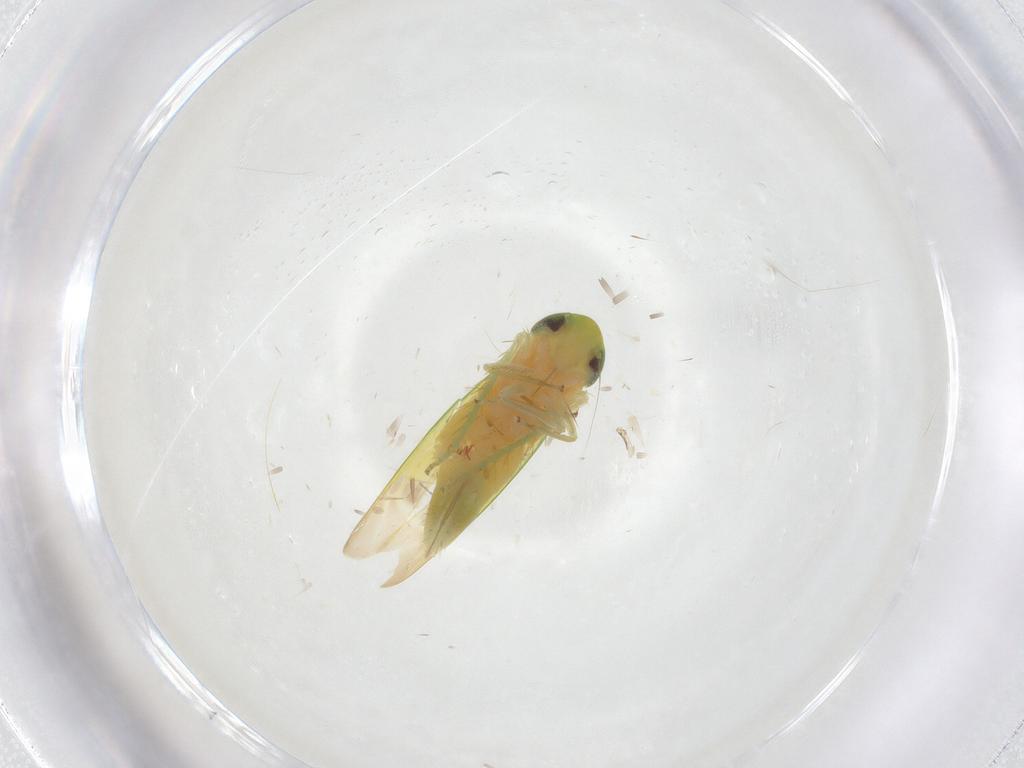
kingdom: Animalia
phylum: Arthropoda
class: Insecta
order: Hemiptera
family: Cicadellidae
